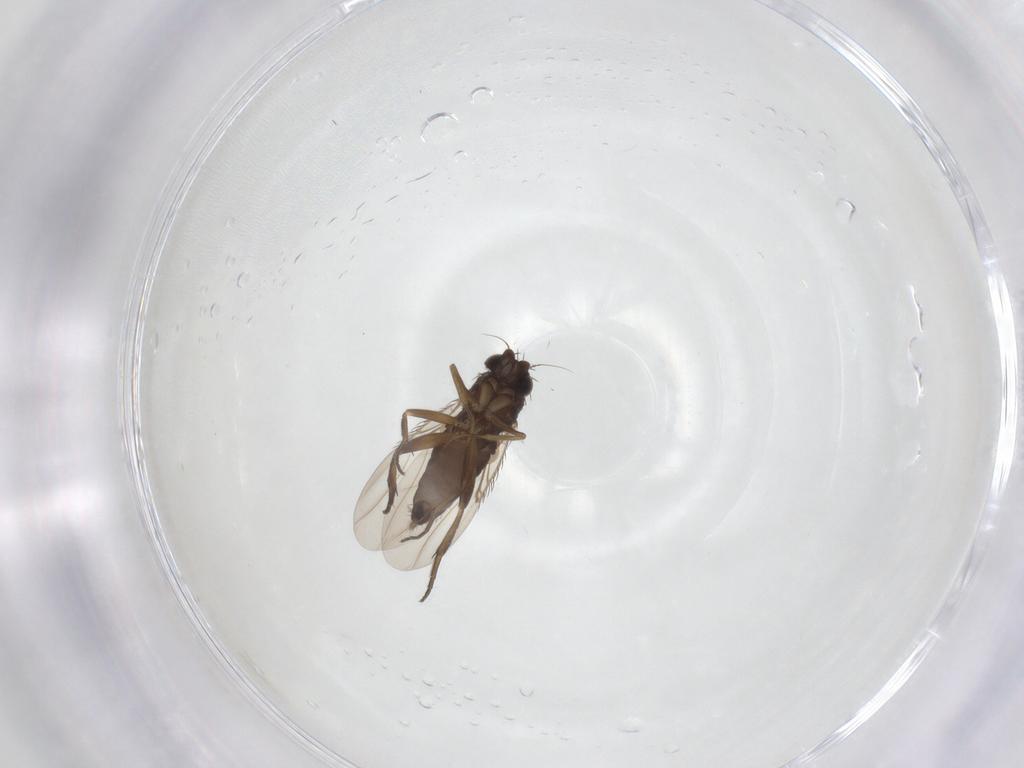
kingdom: Animalia
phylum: Arthropoda
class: Insecta
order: Diptera
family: Phoridae
